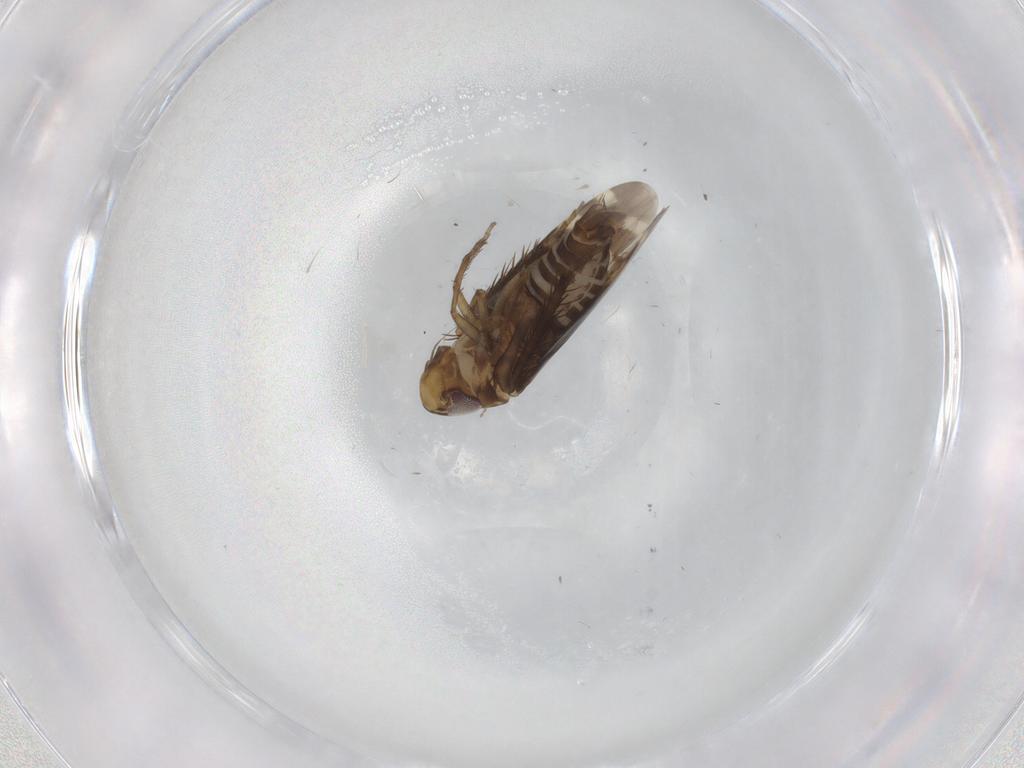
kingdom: Animalia
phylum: Arthropoda
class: Insecta
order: Hemiptera
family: Cicadellidae
